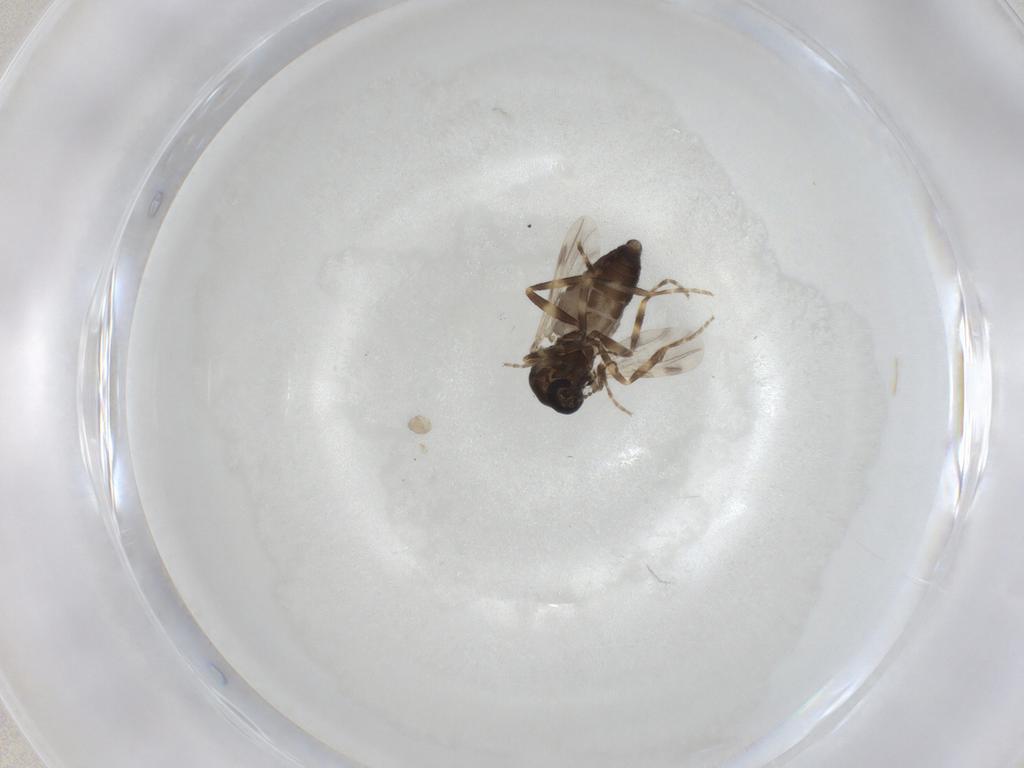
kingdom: Animalia
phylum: Arthropoda
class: Insecta
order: Diptera
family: Ceratopogonidae
